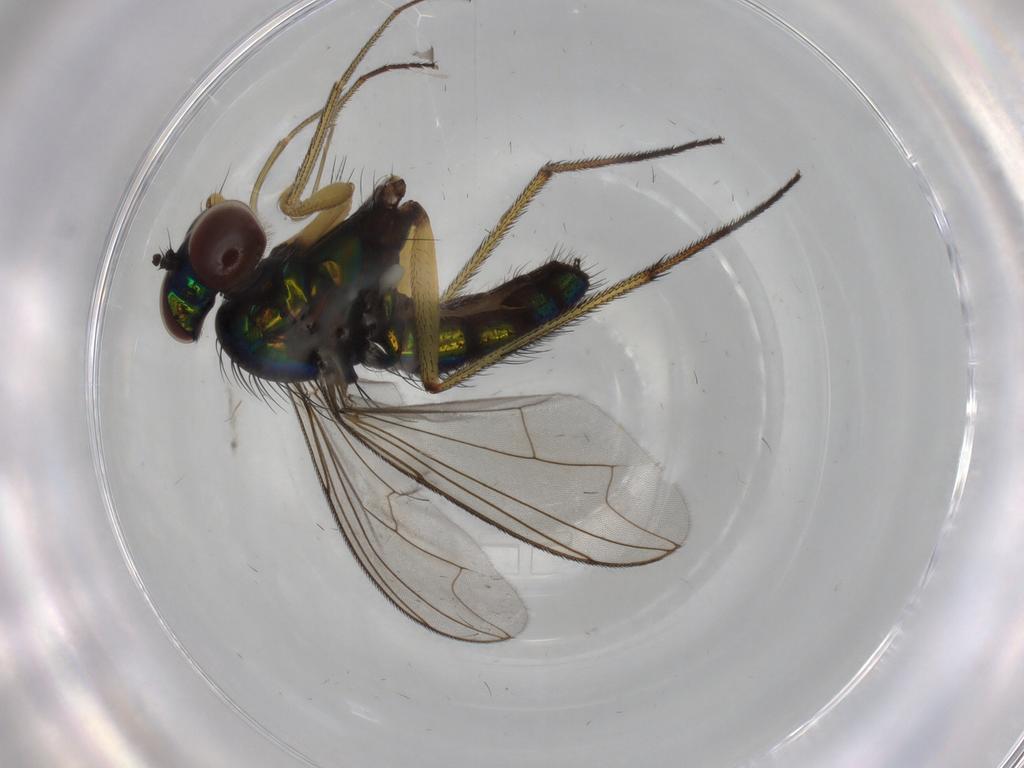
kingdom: Animalia
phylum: Arthropoda
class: Insecta
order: Diptera
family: Dolichopodidae
